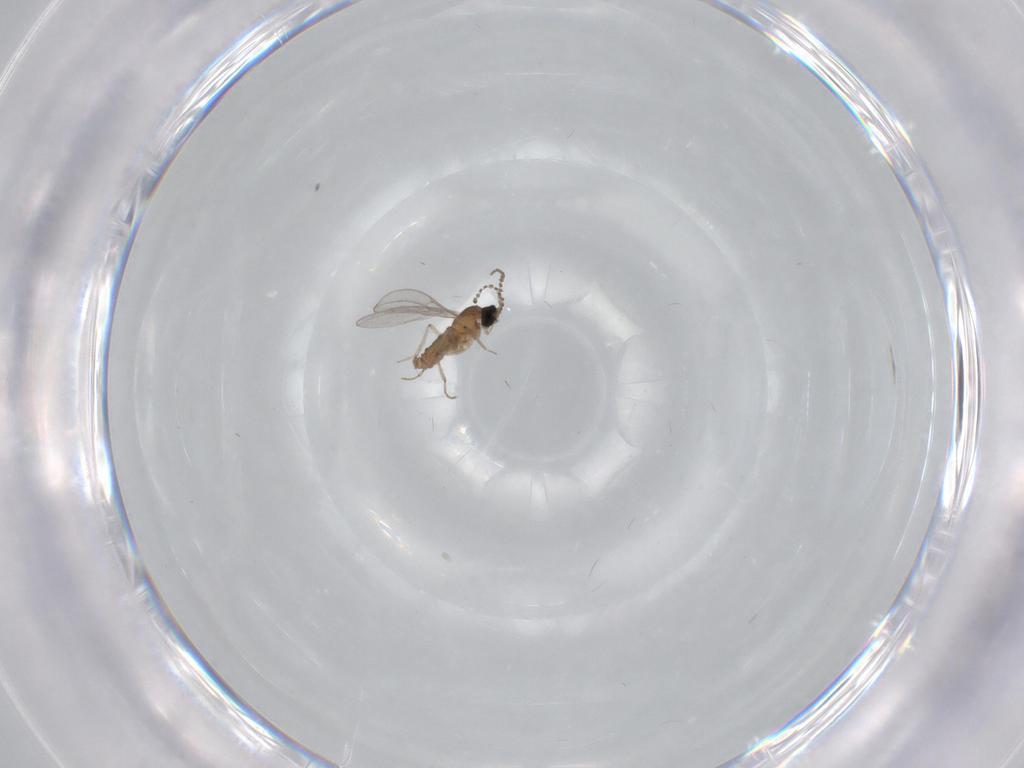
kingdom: Animalia
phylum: Arthropoda
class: Insecta
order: Diptera
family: Cecidomyiidae
